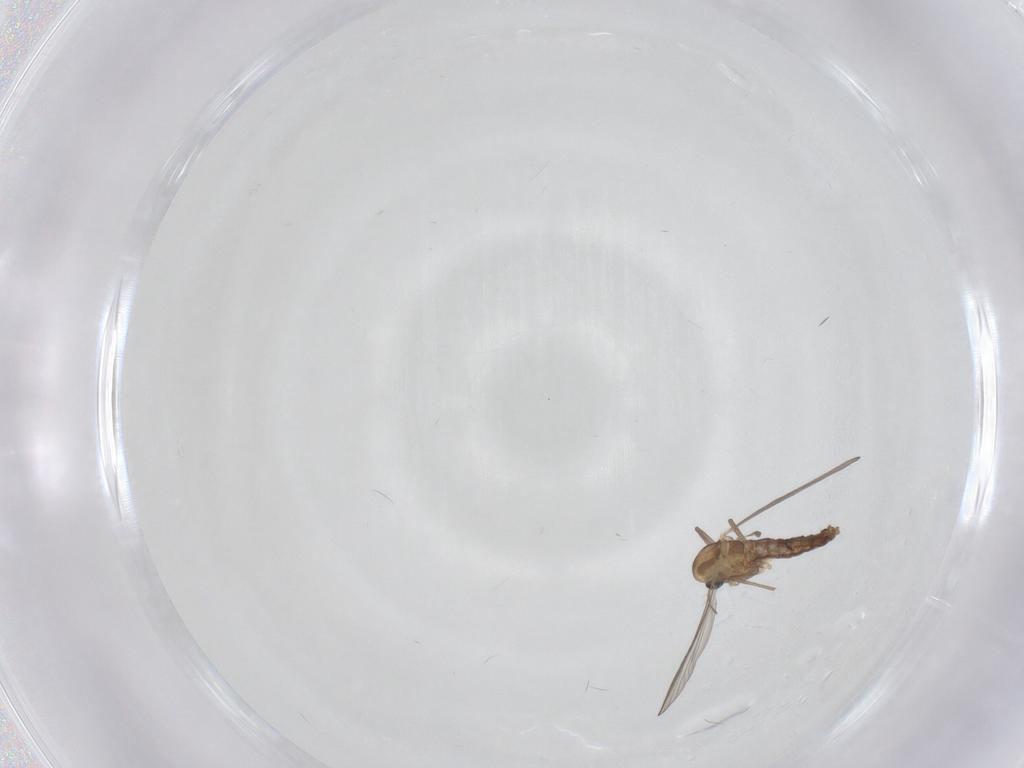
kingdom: Animalia
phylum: Arthropoda
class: Insecta
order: Diptera
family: Chironomidae
